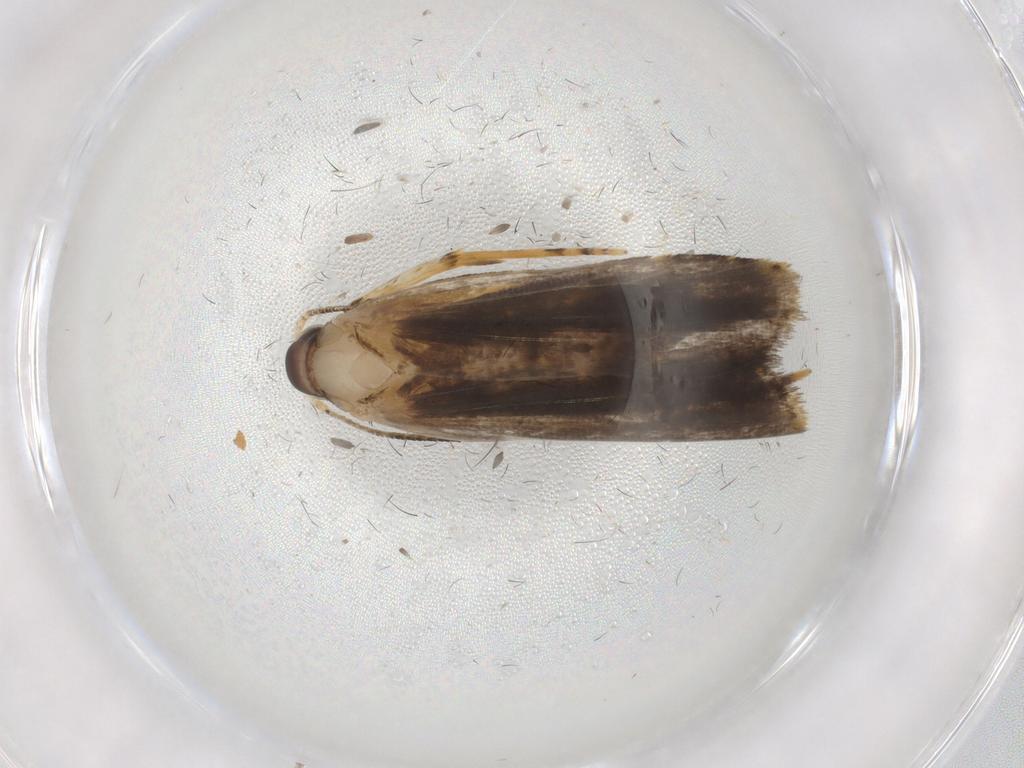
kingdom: Animalia
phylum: Arthropoda
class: Insecta
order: Lepidoptera
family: Cosmopterigidae
